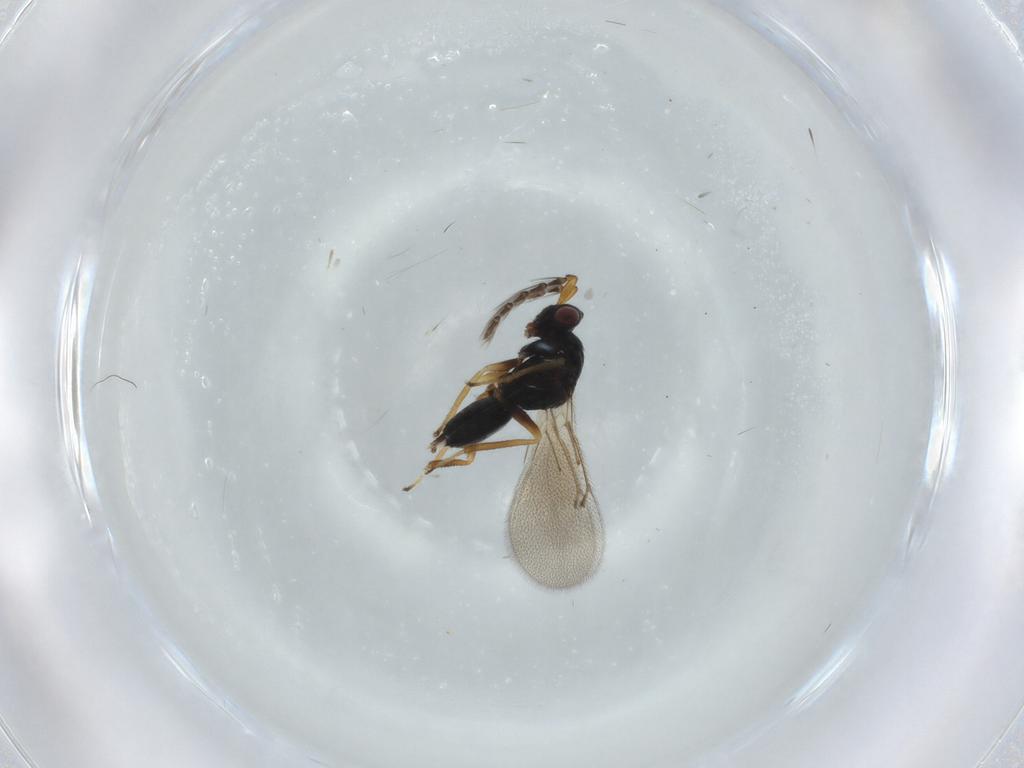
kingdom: Animalia
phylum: Arthropoda
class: Insecta
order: Hymenoptera
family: Eulophidae
